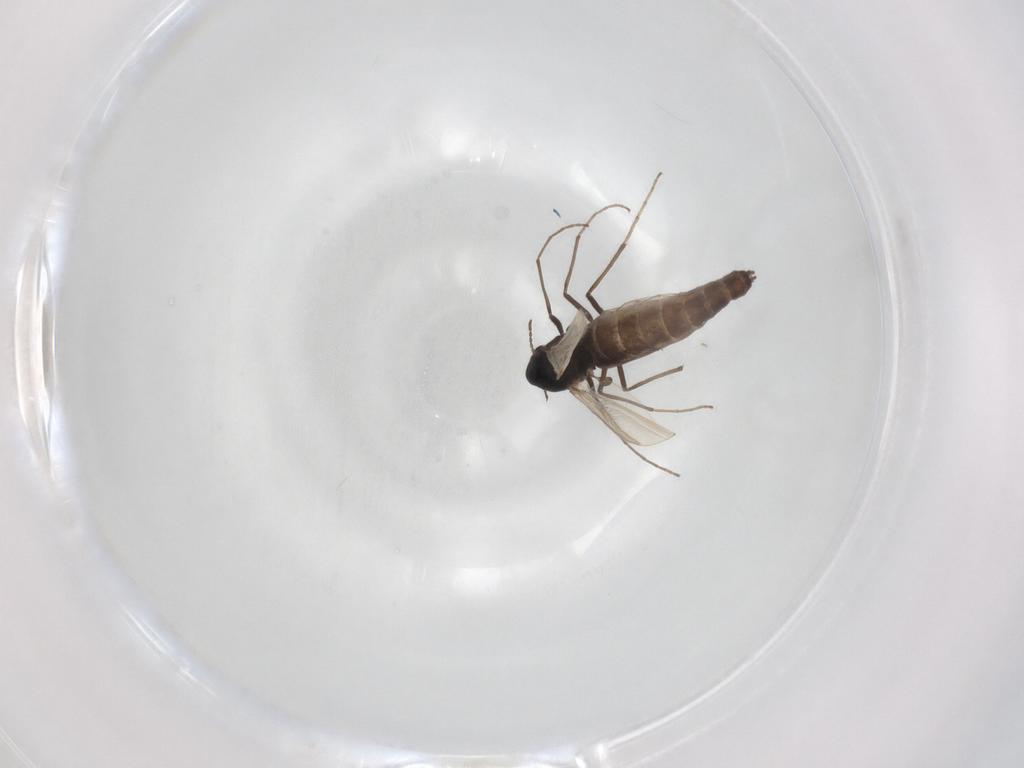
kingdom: Animalia
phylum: Arthropoda
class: Insecta
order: Diptera
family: Chironomidae
